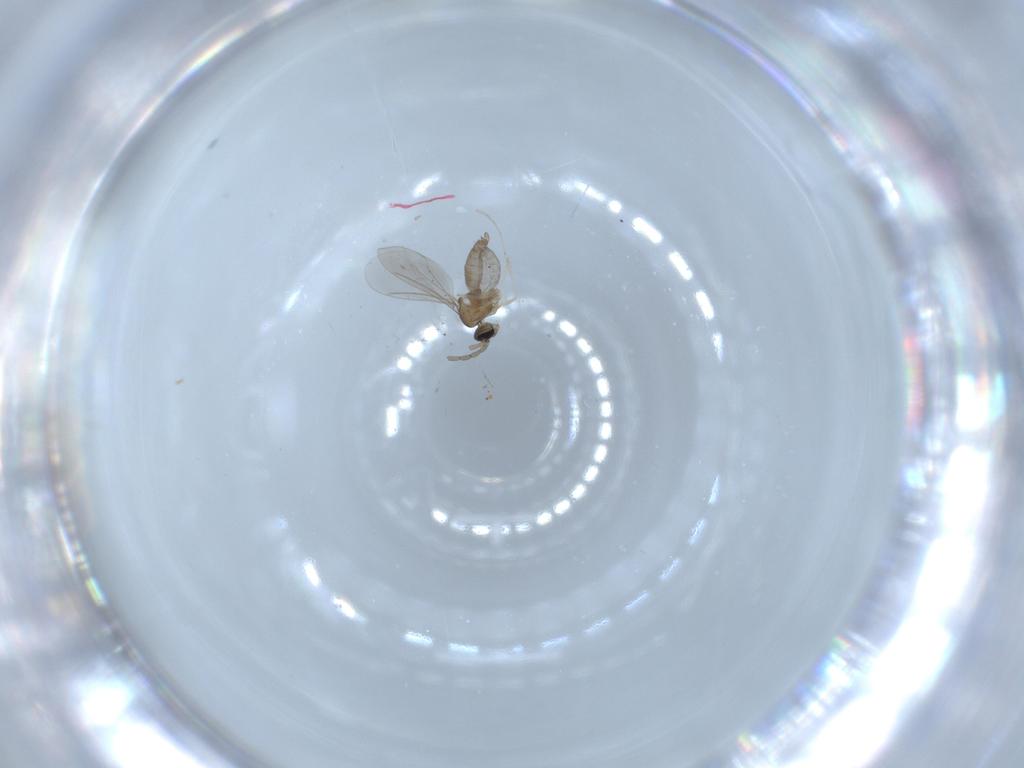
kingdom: Animalia
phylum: Arthropoda
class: Insecta
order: Diptera
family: Cecidomyiidae
